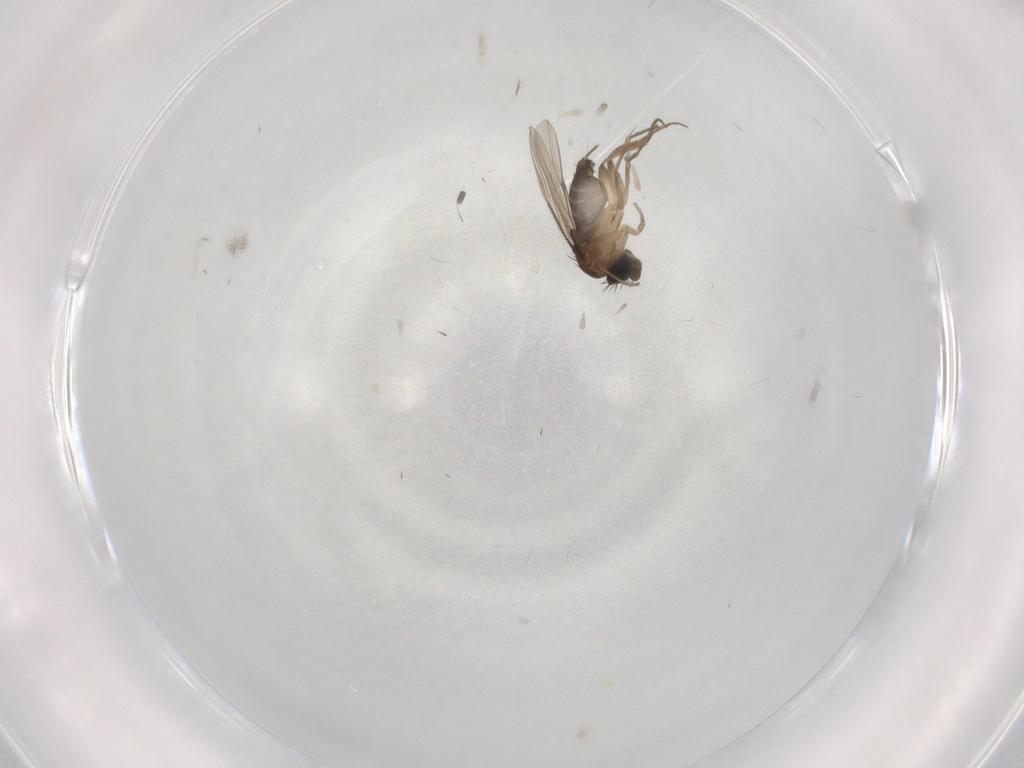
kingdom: Animalia
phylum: Arthropoda
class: Insecta
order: Diptera
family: Phoridae
